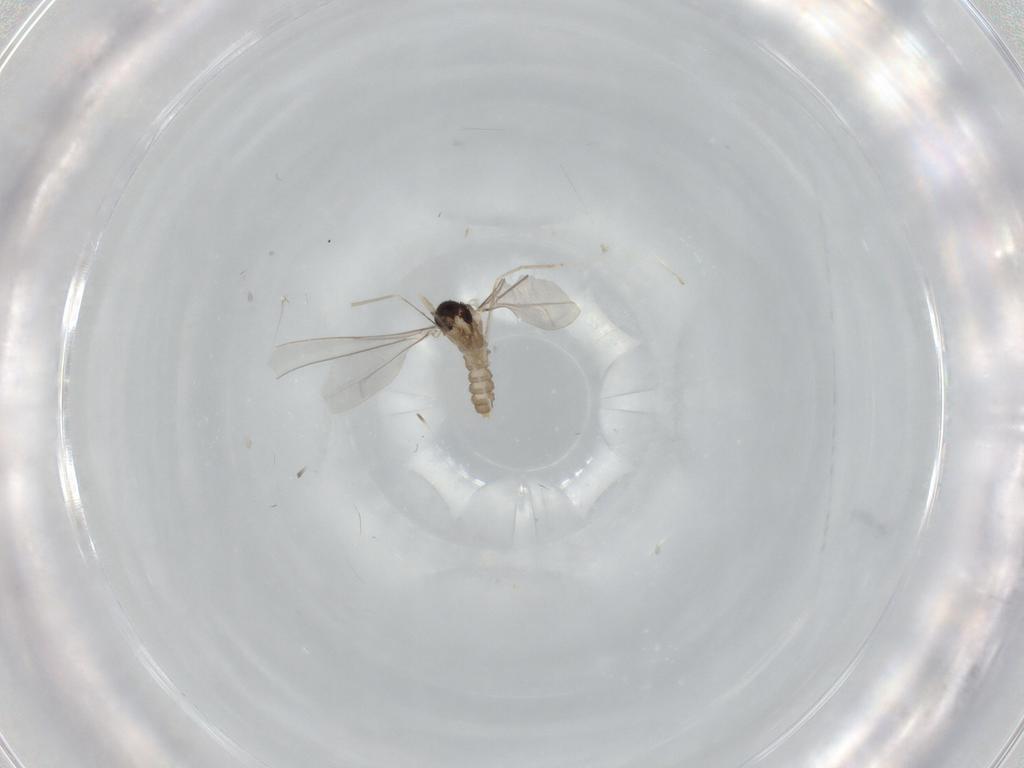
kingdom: Animalia
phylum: Arthropoda
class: Insecta
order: Diptera
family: Cecidomyiidae
